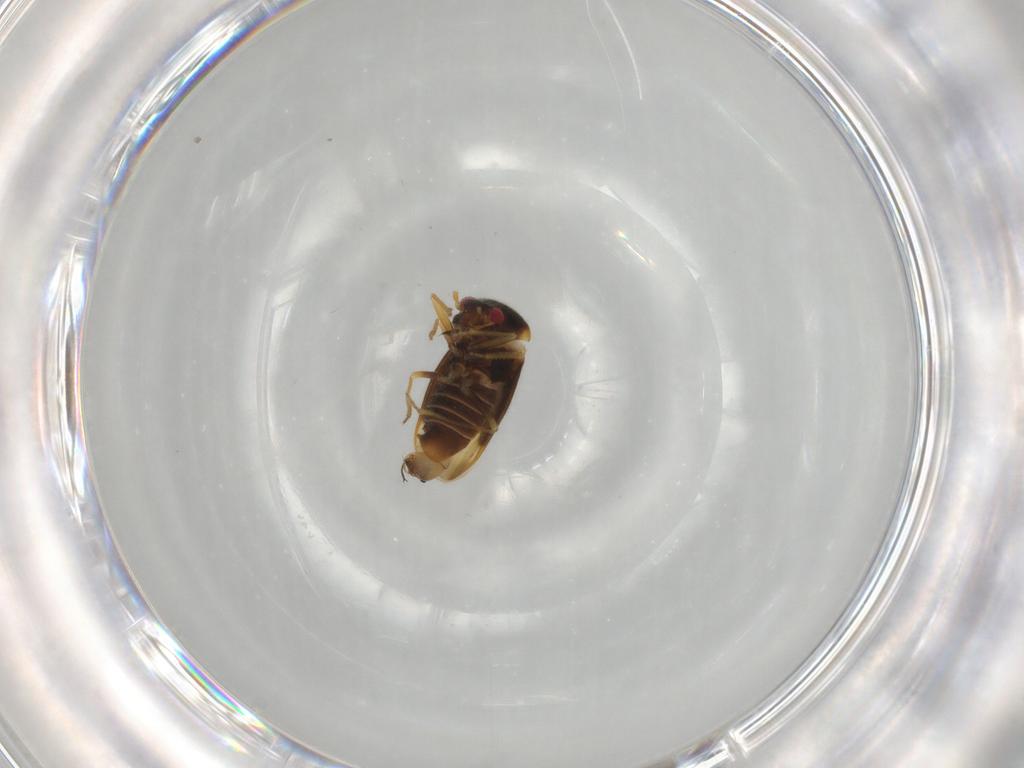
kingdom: Animalia
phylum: Arthropoda
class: Insecta
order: Hemiptera
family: Schizopteridae
